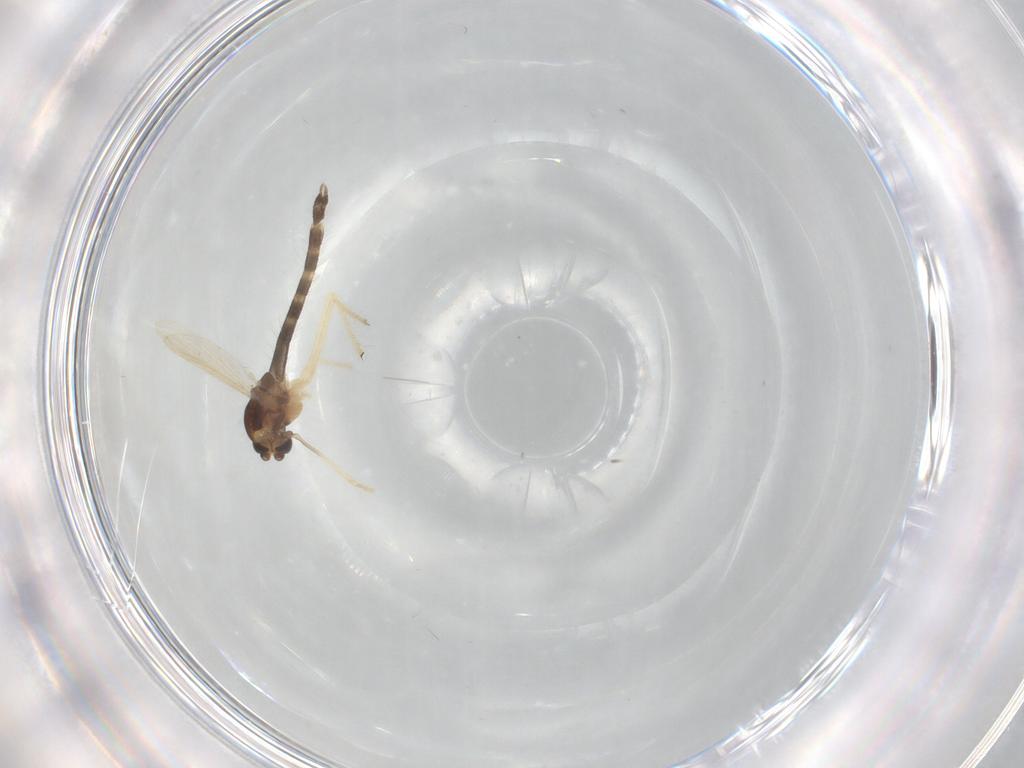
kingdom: Animalia
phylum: Arthropoda
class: Insecta
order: Diptera
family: Chironomidae
